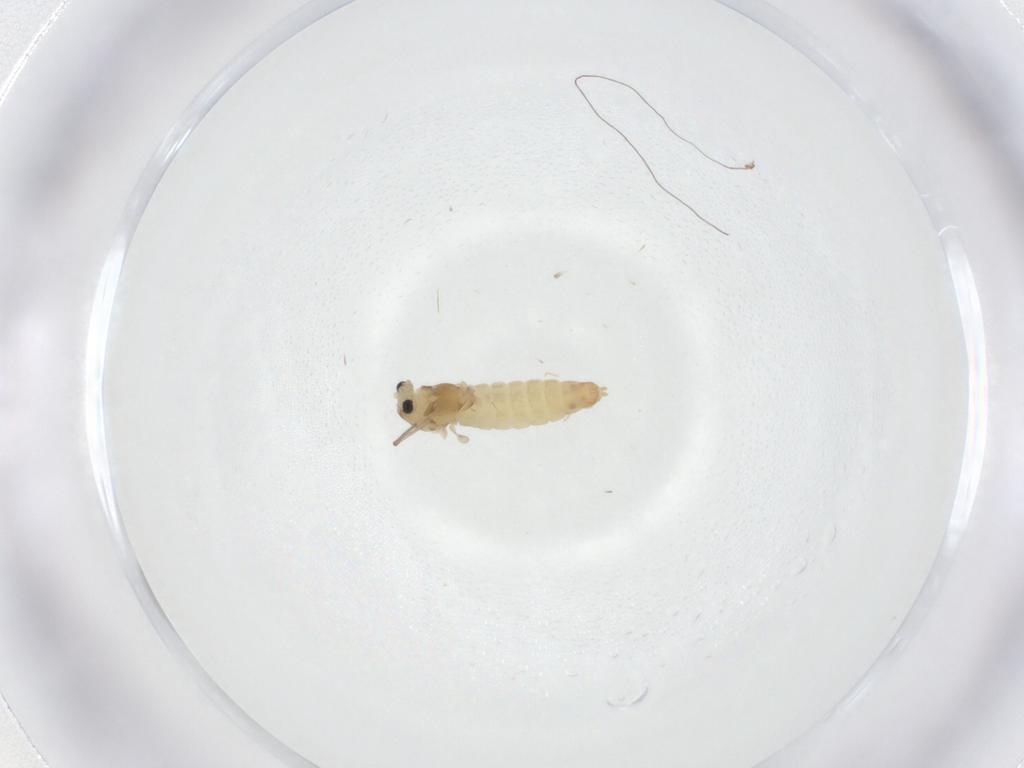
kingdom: Animalia
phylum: Arthropoda
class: Insecta
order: Diptera
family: Chironomidae
